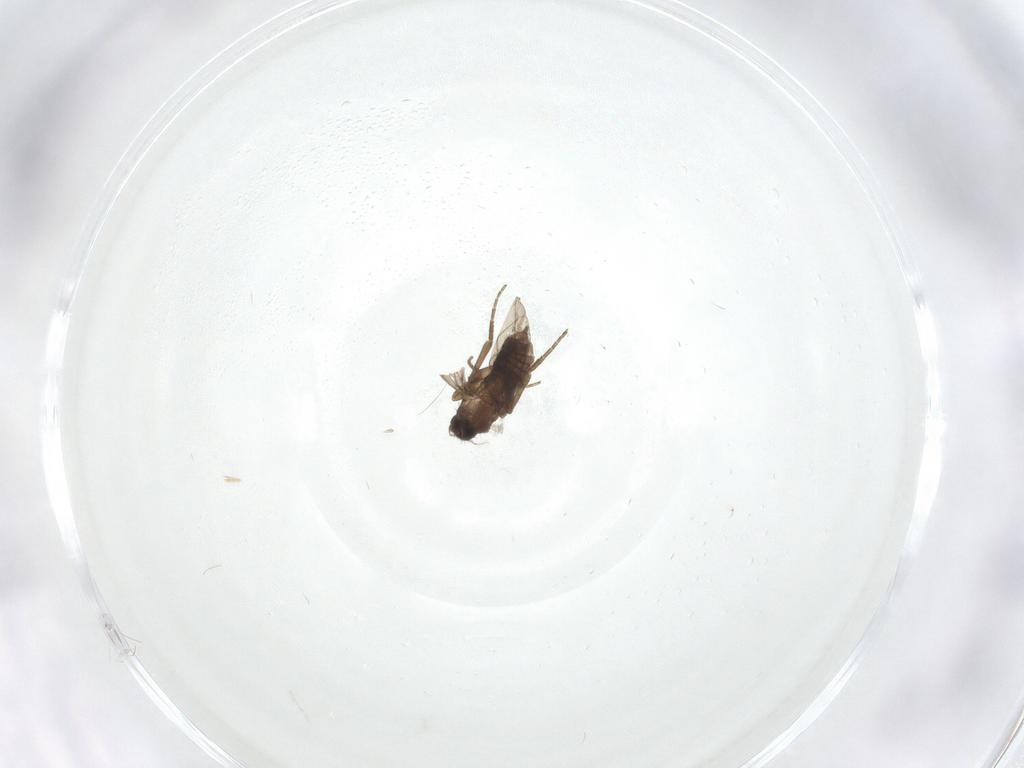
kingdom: Animalia
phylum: Arthropoda
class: Insecta
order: Diptera
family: Phoridae
